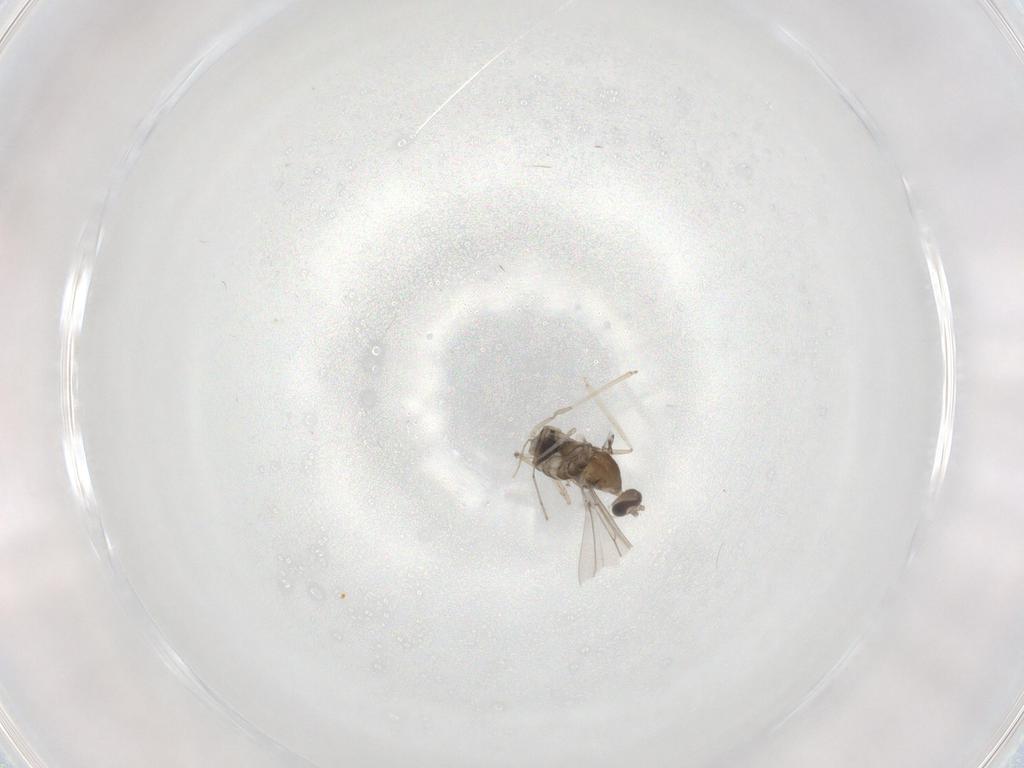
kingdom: Animalia
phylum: Arthropoda
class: Insecta
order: Diptera
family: Cecidomyiidae
